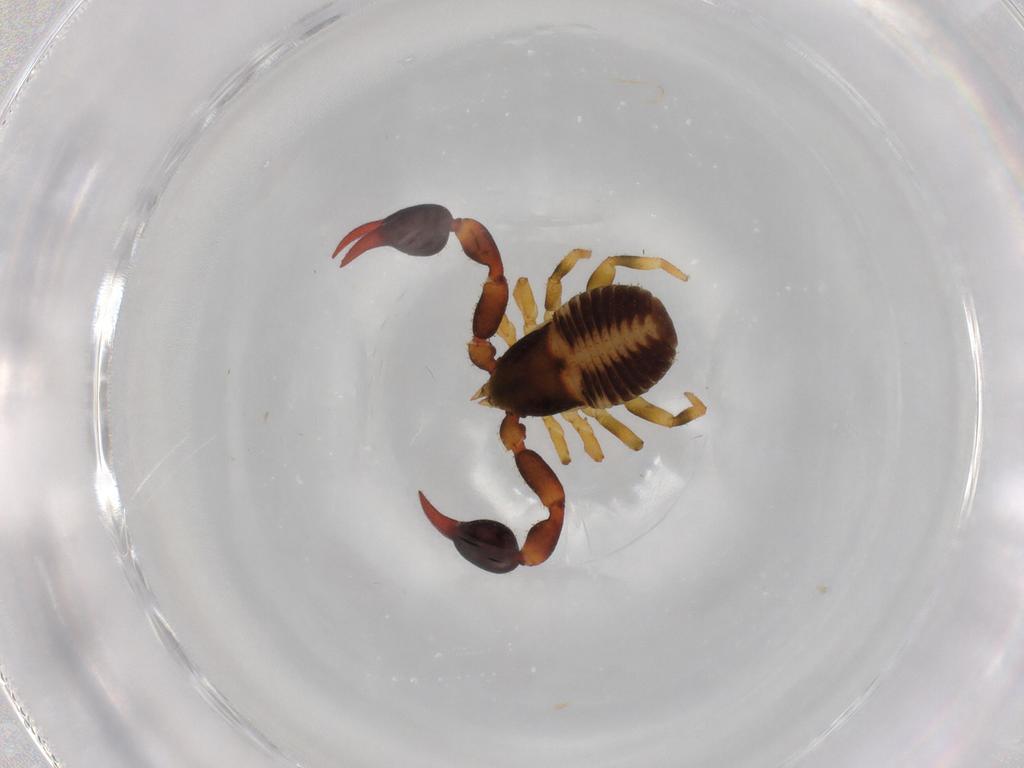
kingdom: Animalia
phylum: Arthropoda
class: Arachnida
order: Pseudoscorpiones
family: Chernetidae
